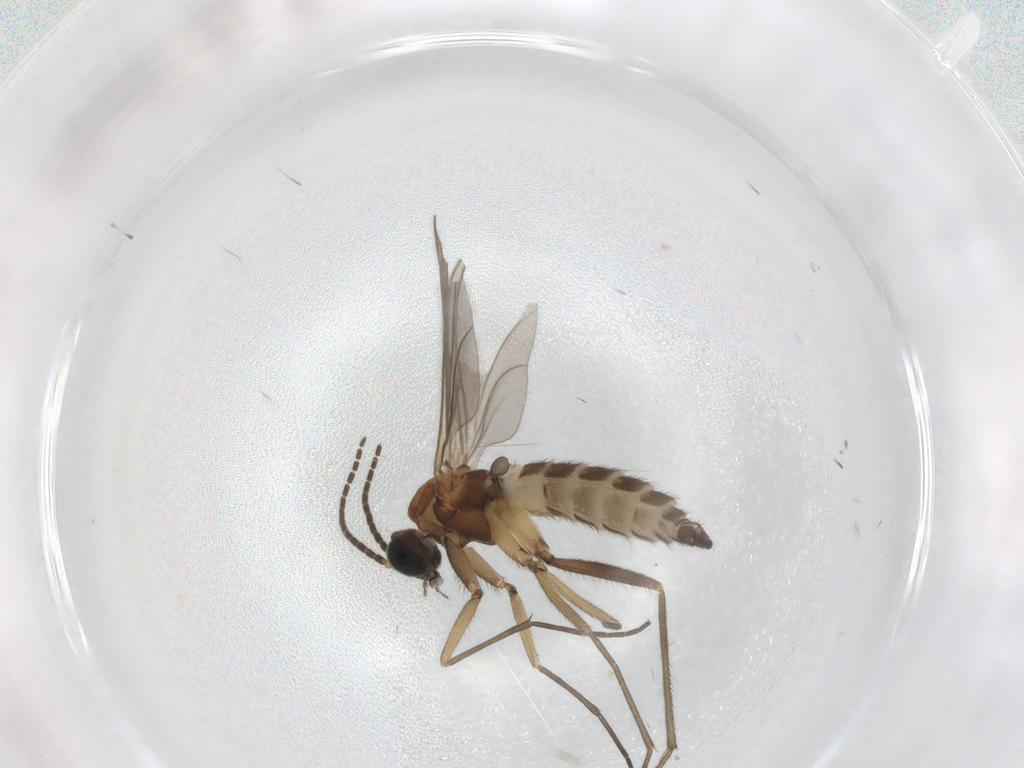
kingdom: Animalia
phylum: Arthropoda
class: Insecta
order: Diptera
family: Sciaridae
